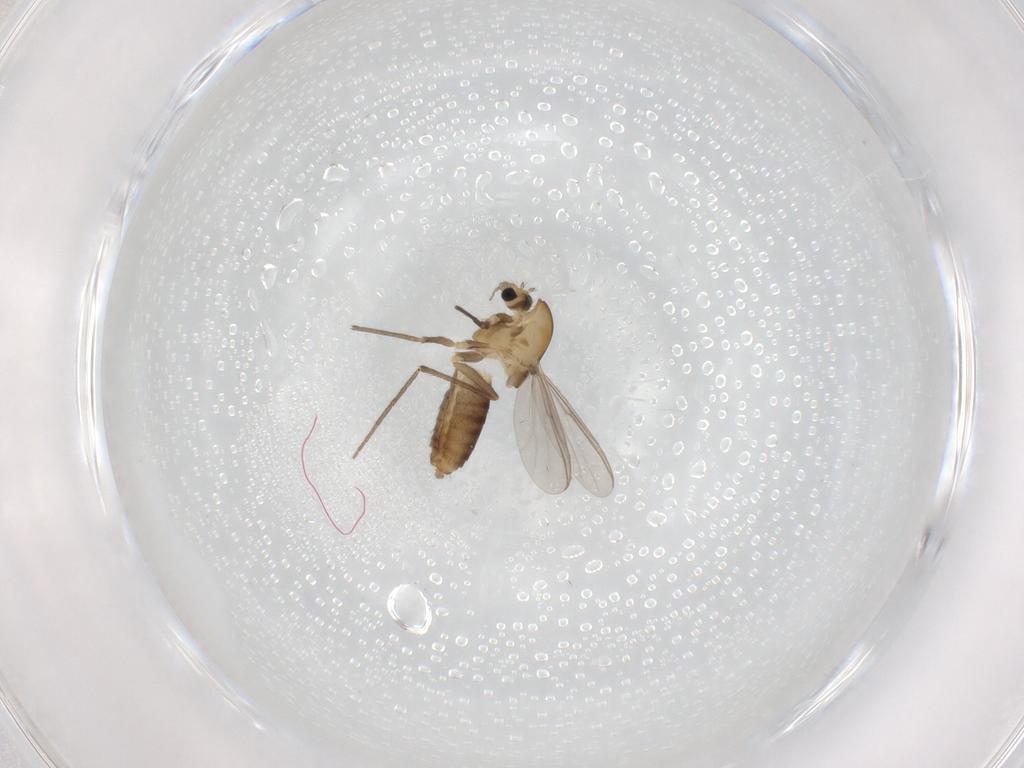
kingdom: Animalia
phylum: Arthropoda
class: Insecta
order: Diptera
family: Chironomidae
